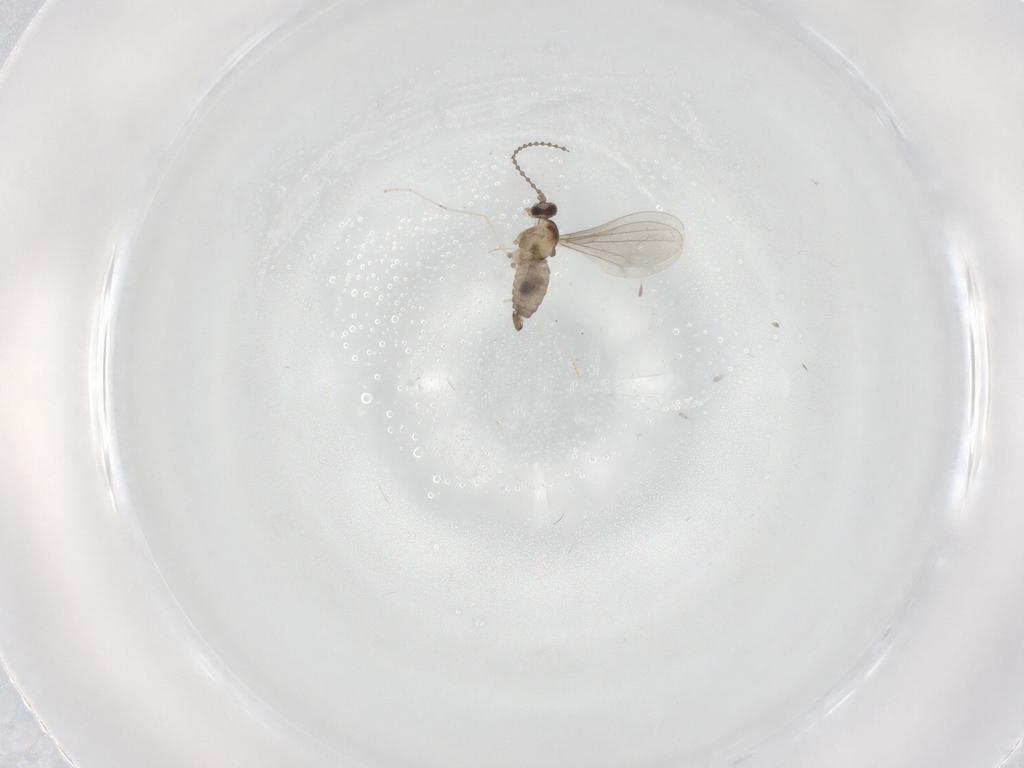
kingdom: Animalia
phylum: Arthropoda
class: Insecta
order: Diptera
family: Cecidomyiidae
